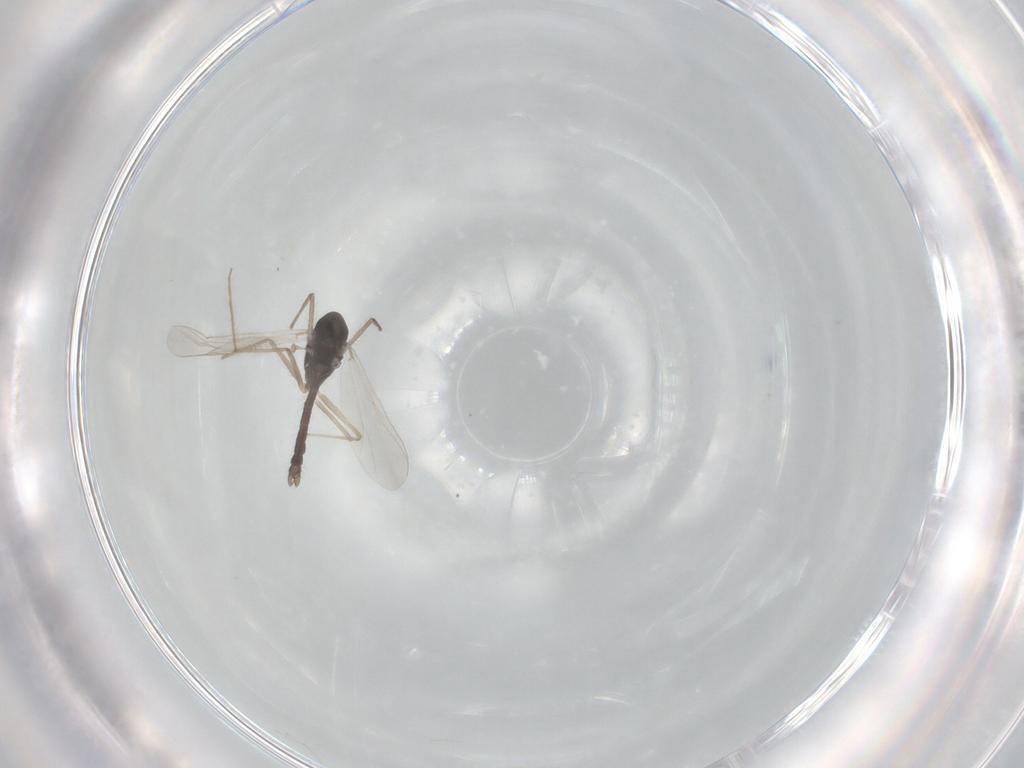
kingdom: Animalia
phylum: Arthropoda
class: Insecta
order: Diptera
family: Chironomidae
